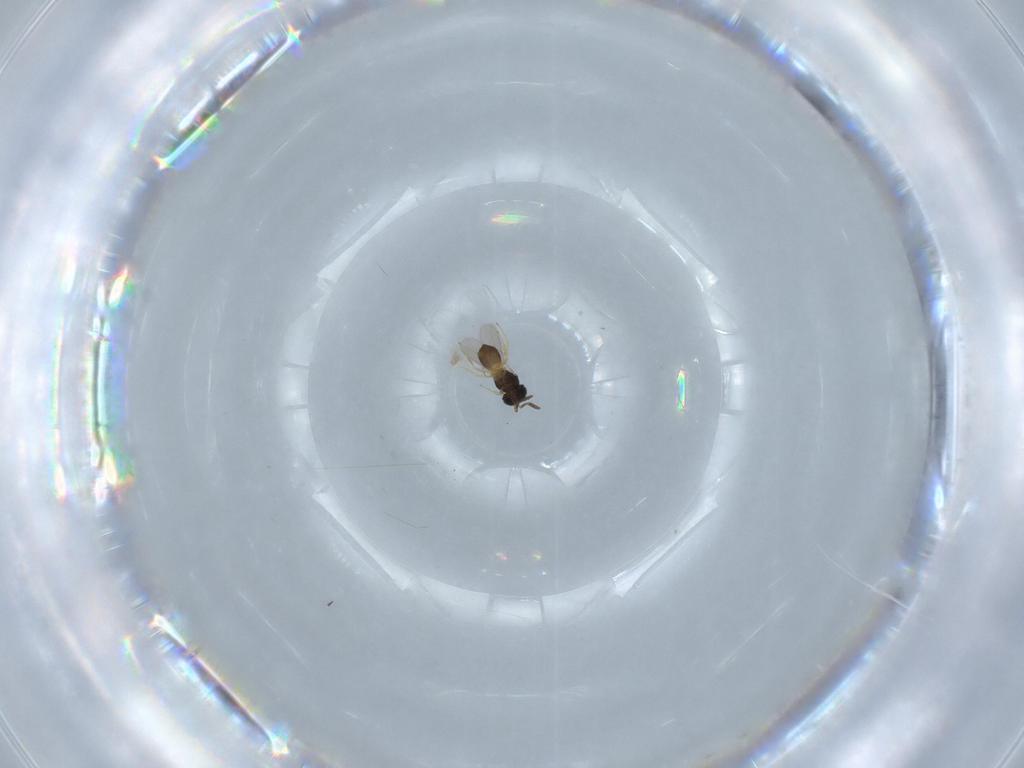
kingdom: Animalia
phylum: Arthropoda
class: Insecta
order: Hymenoptera
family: Scelionidae
